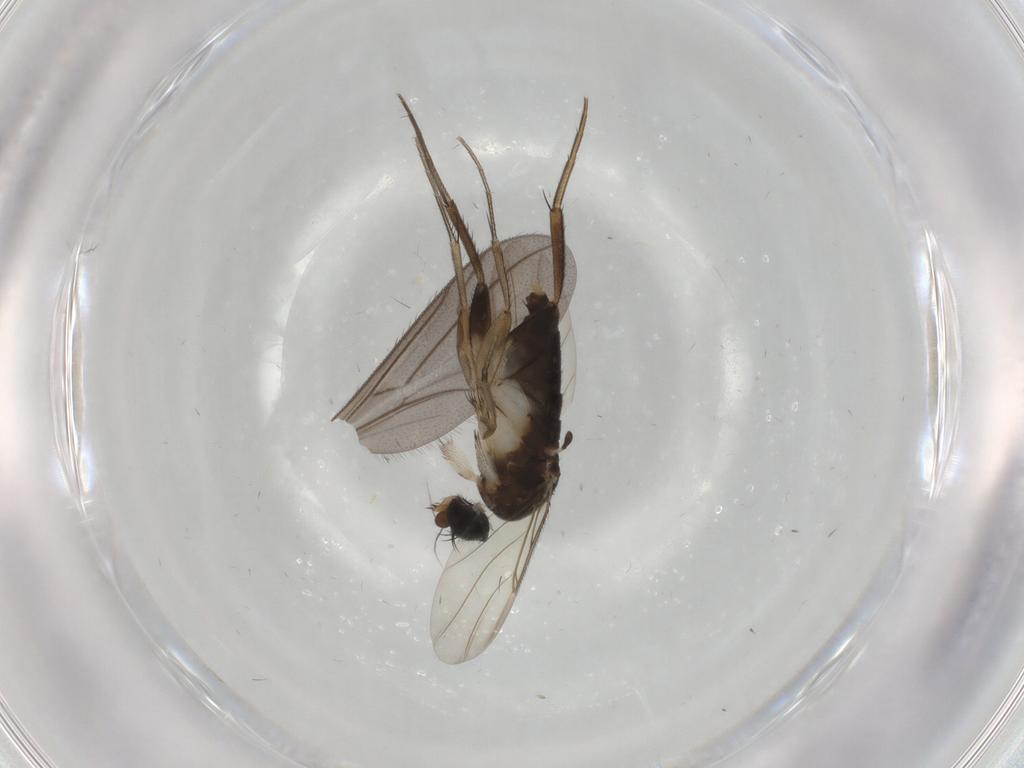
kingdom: Animalia
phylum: Arthropoda
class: Insecta
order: Diptera
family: Phoridae
